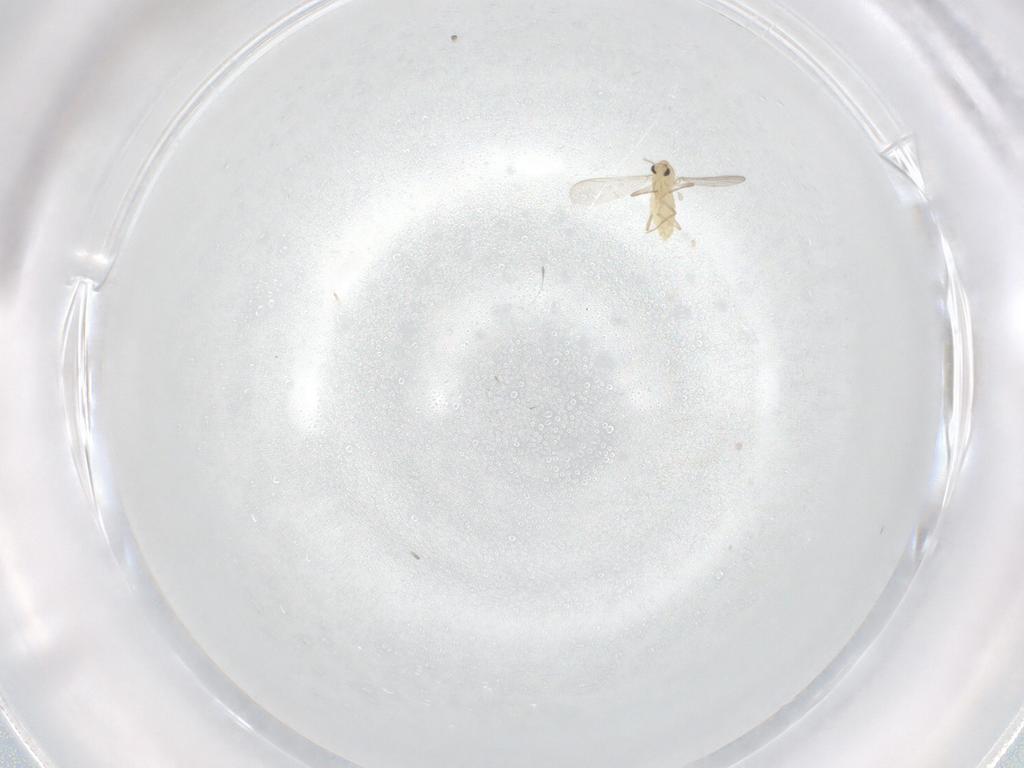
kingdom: Animalia
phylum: Arthropoda
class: Insecta
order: Diptera
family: Chironomidae
